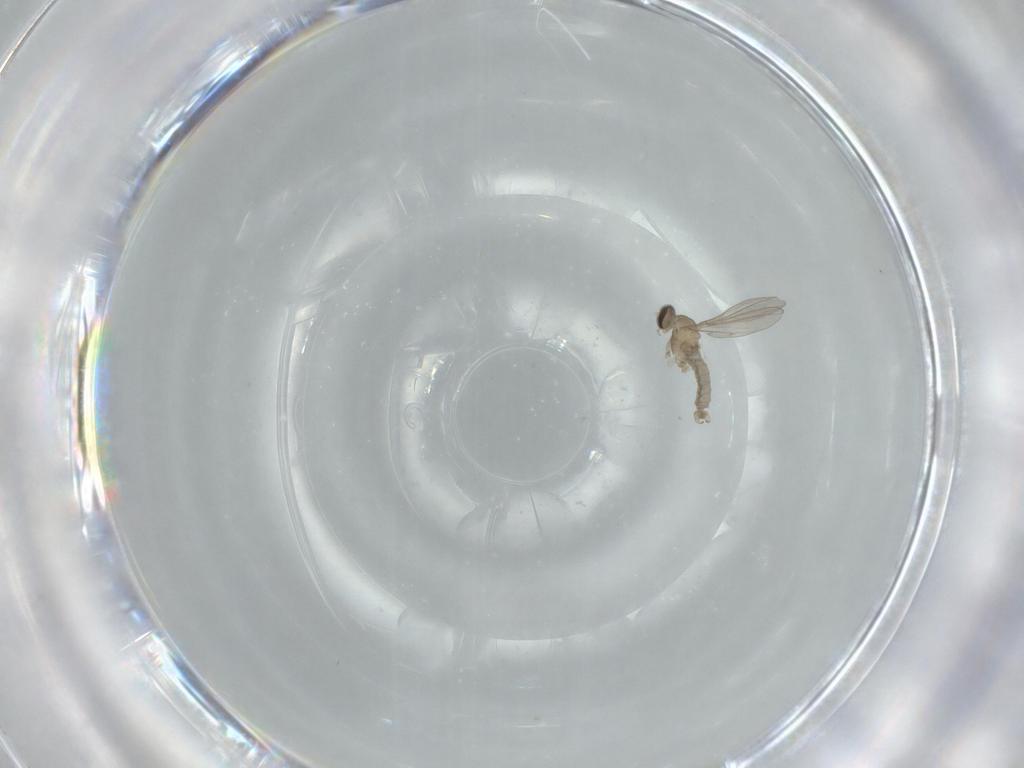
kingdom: Animalia
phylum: Arthropoda
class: Insecta
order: Diptera
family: Cecidomyiidae
